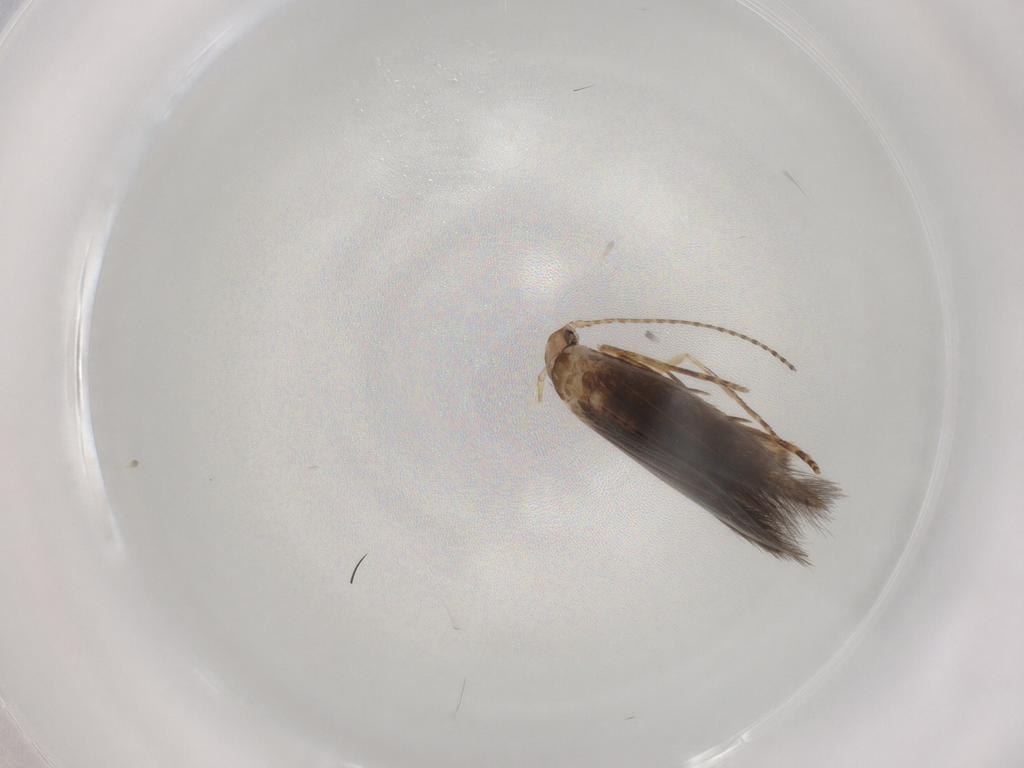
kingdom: Animalia
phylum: Arthropoda
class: Insecta
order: Lepidoptera
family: Coleophoridae
